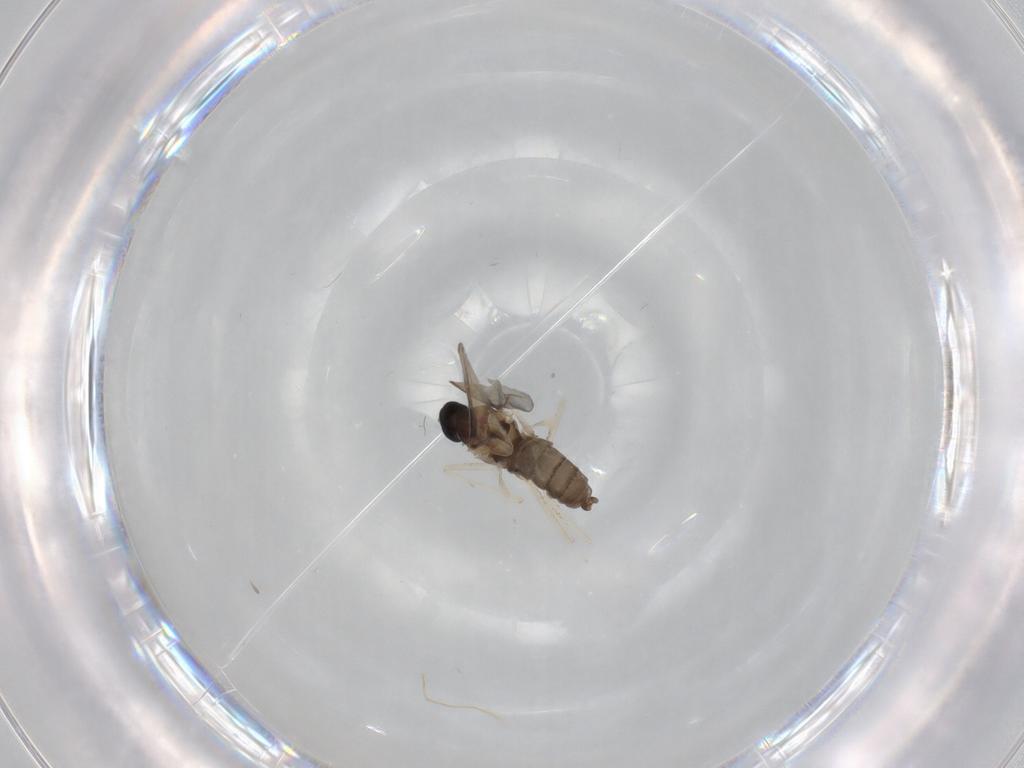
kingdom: Animalia
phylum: Arthropoda
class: Insecta
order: Diptera
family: Cecidomyiidae
